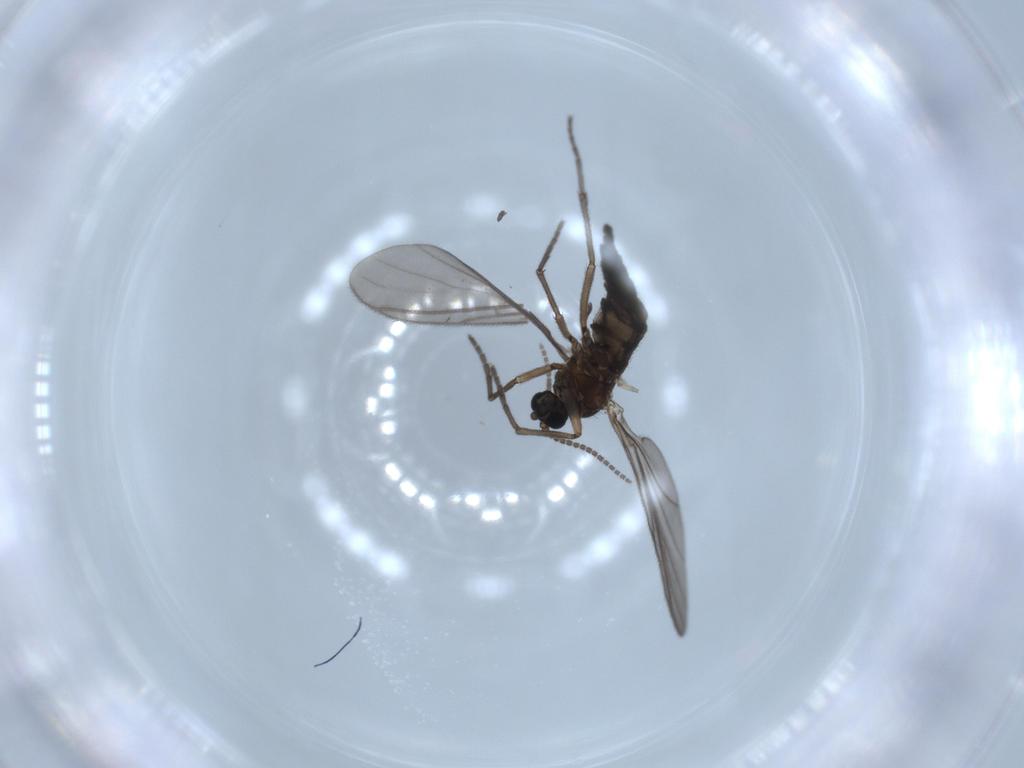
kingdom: Animalia
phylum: Arthropoda
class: Insecta
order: Diptera
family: Sciaridae
